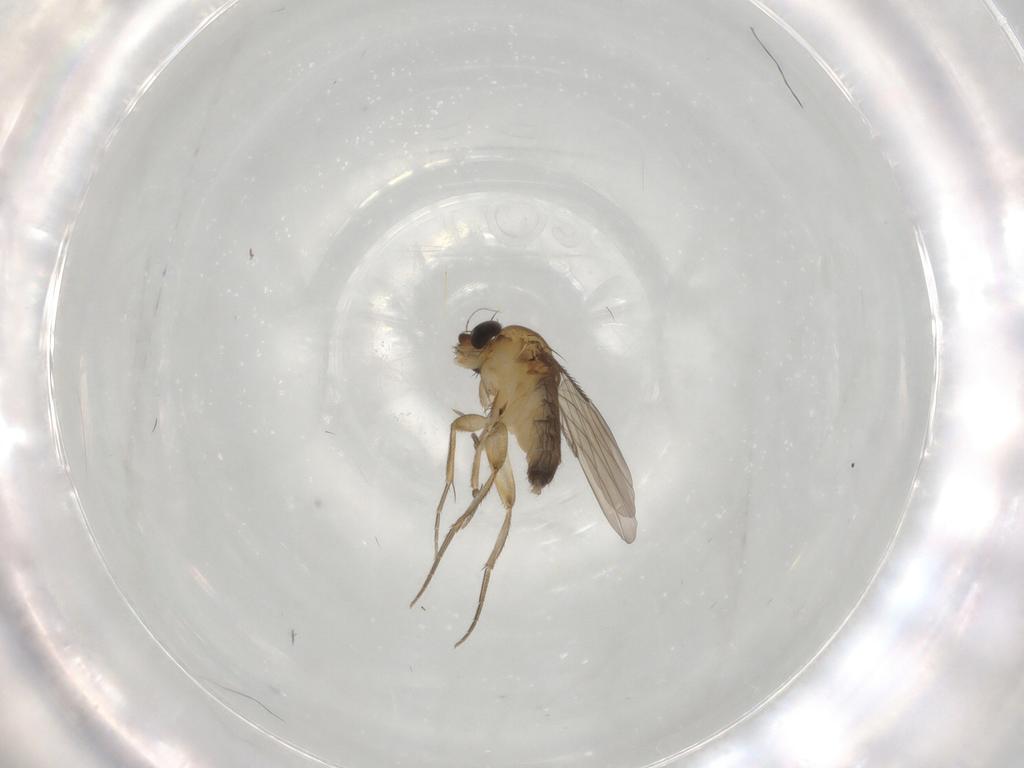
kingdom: Animalia
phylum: Arthropoda
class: Insecta
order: Diptera
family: Phoridae
